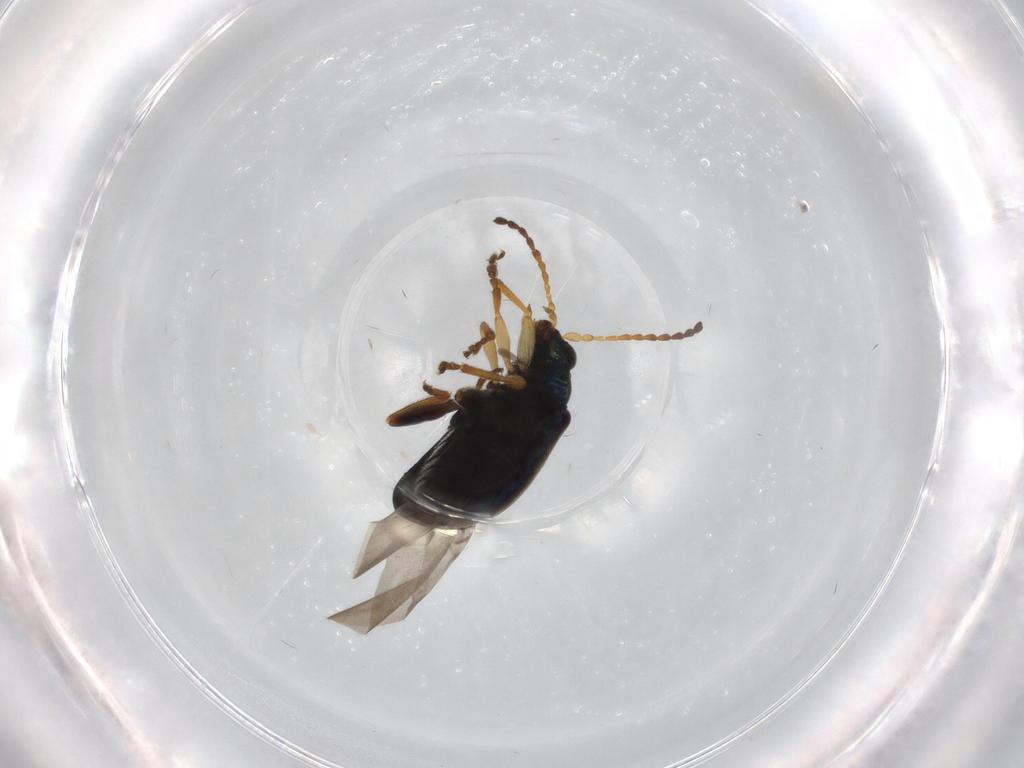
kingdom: Animalia
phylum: Arthropoda
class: Insecta
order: Coleoptera
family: Chrysomelidae
